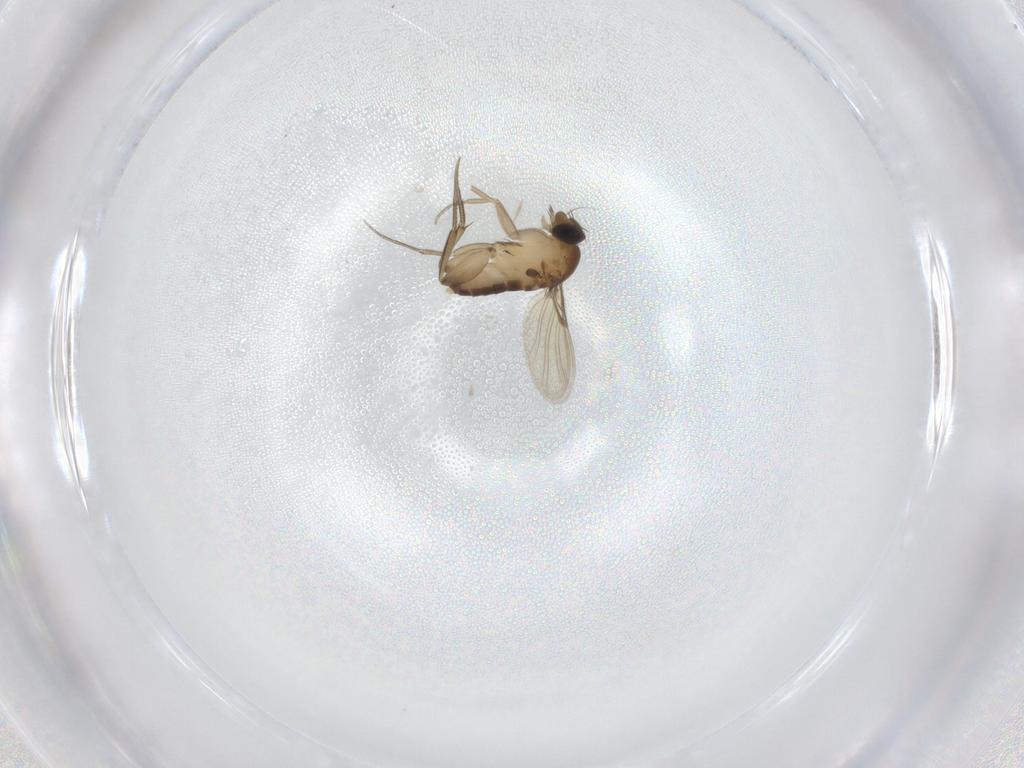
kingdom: Animalia
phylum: Arthropoda
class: Insecta
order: Diptera
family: Phoridae
